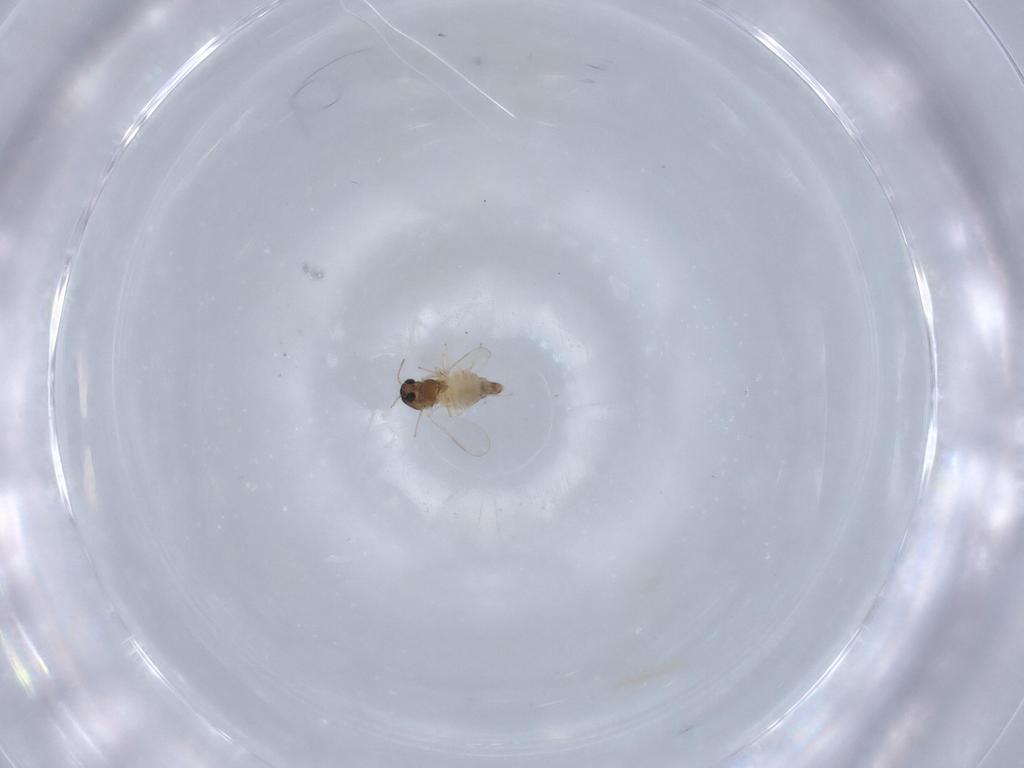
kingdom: Animalia
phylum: Arthropoda
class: Insecta
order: Diptera
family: Chironomidae
